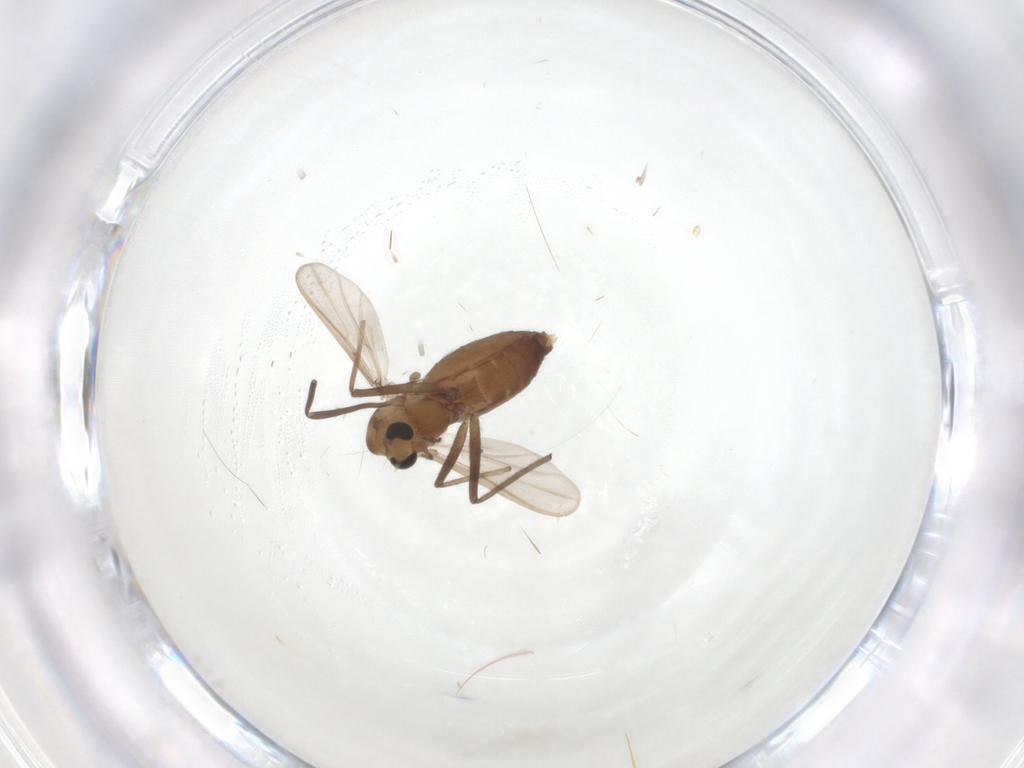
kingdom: Animalia
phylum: Arthropoda
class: Insecta
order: Diptera
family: Chironomidae
